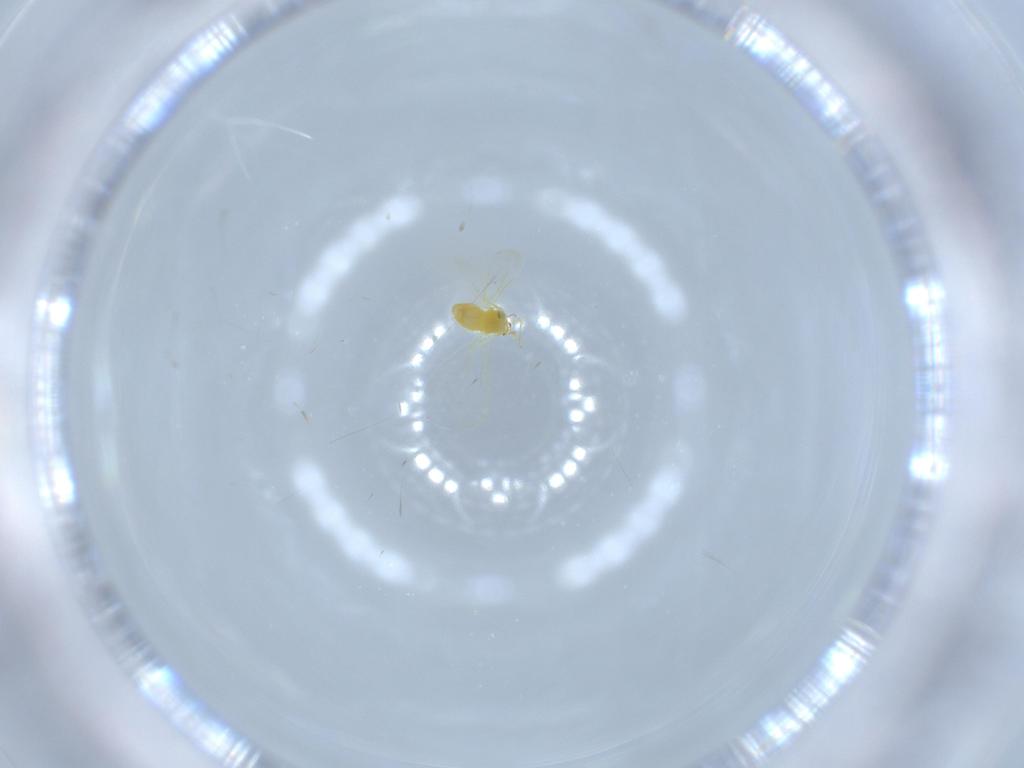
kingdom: Animalia
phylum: Arthropoda
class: Insecta
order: Hemiptera
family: Aleyrodidae
